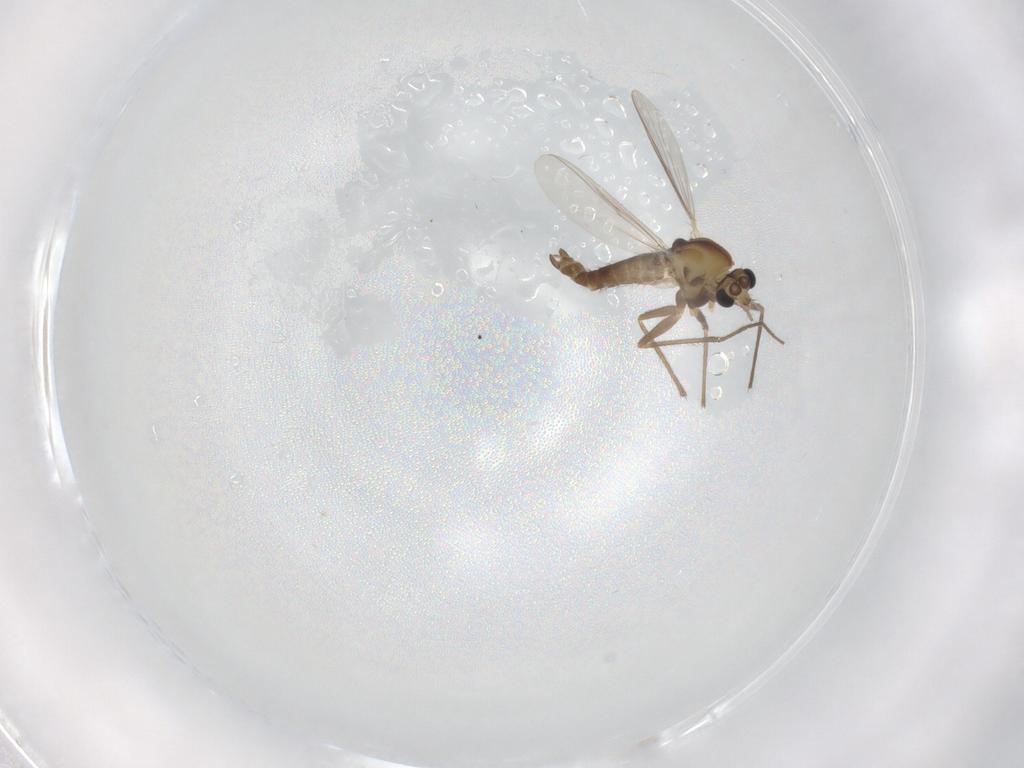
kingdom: Animalia
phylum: Arthropoda
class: Insecta
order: Diptera
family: Chironomidae
